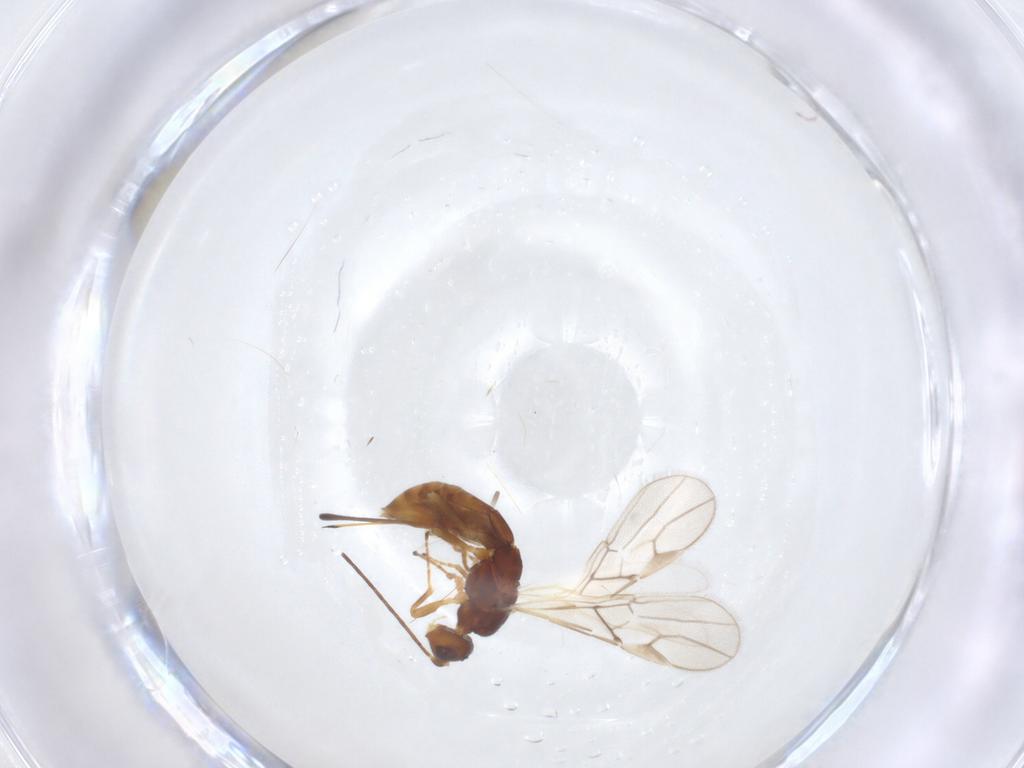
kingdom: Animalia
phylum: Arthropoda
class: Insecta
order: Hymenoptera
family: Braconidae
